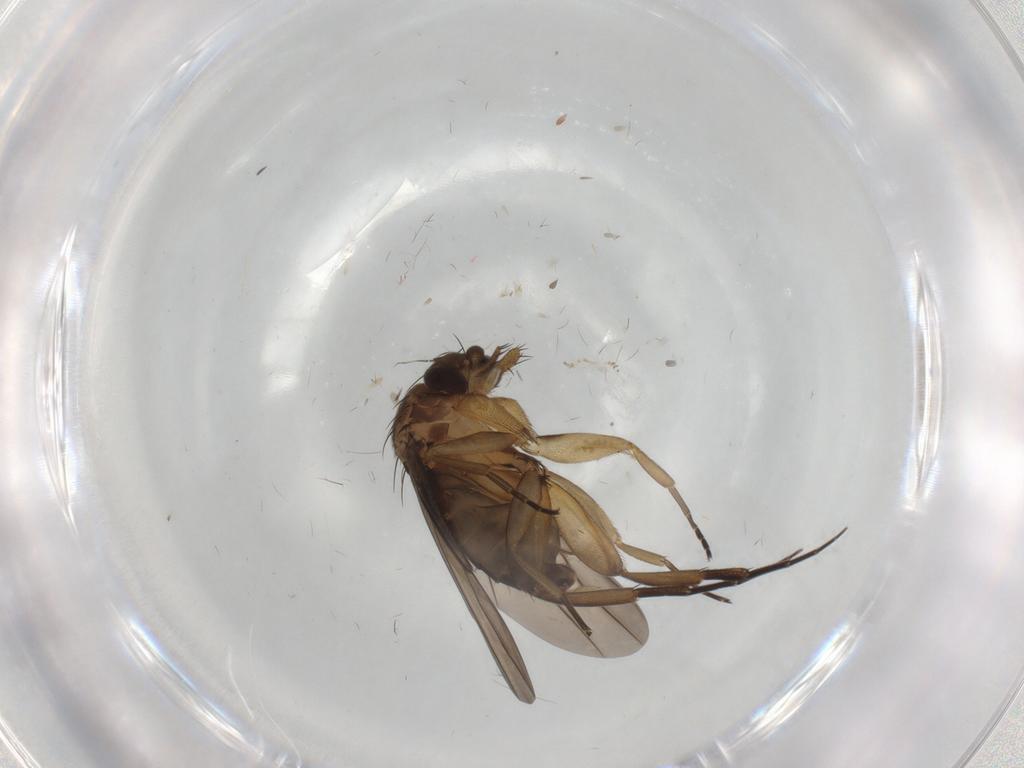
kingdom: Animalia
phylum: Arthropoda
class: Insecta
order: Diptera
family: Chironomidae
